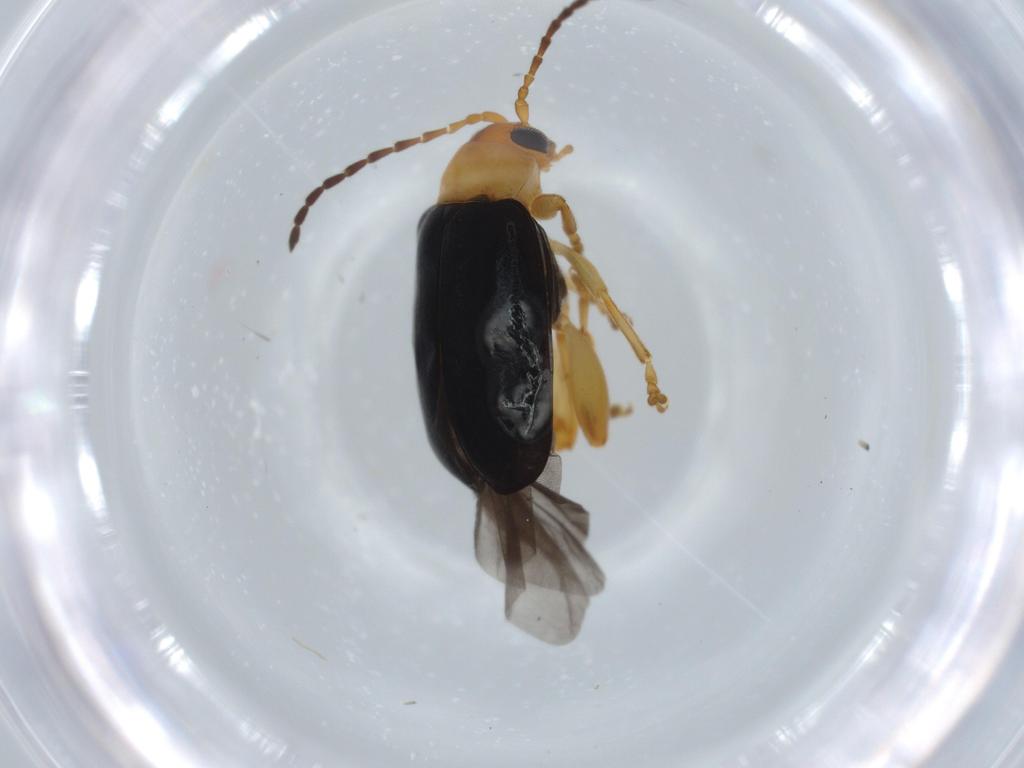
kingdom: Animalia
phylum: Arthropoda
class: Insecta
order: Coleoptera
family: Chrysomelidae
